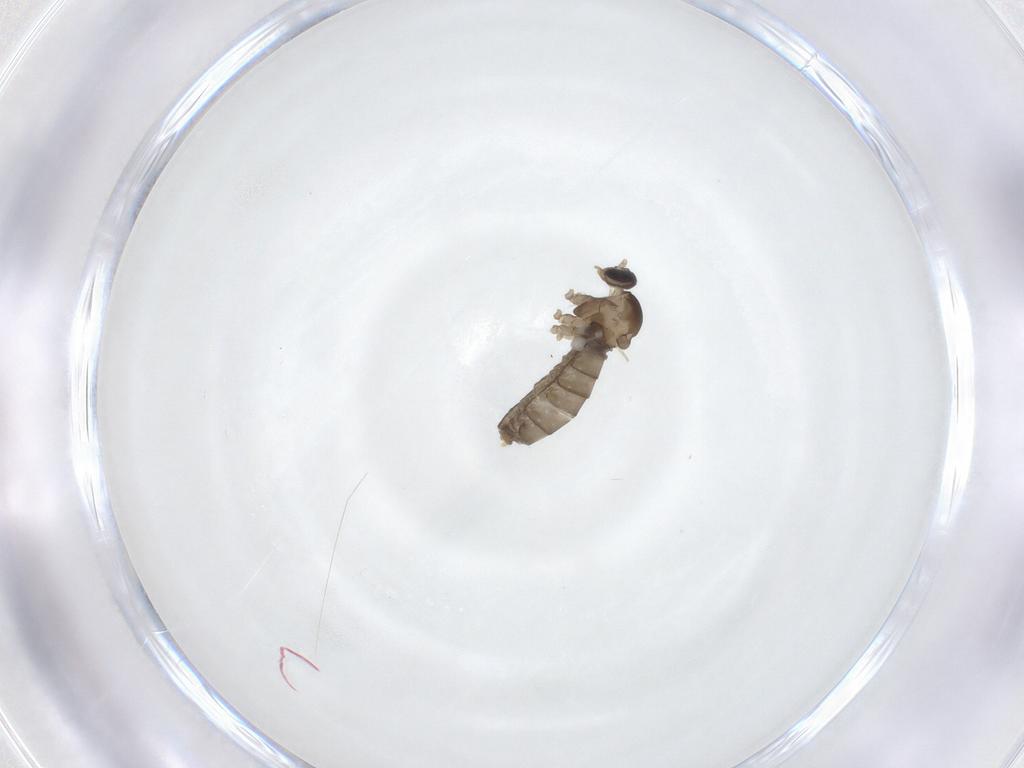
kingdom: Animalia
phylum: Arthropoda
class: Insecta
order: Diptera
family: Cecidomyiidae
